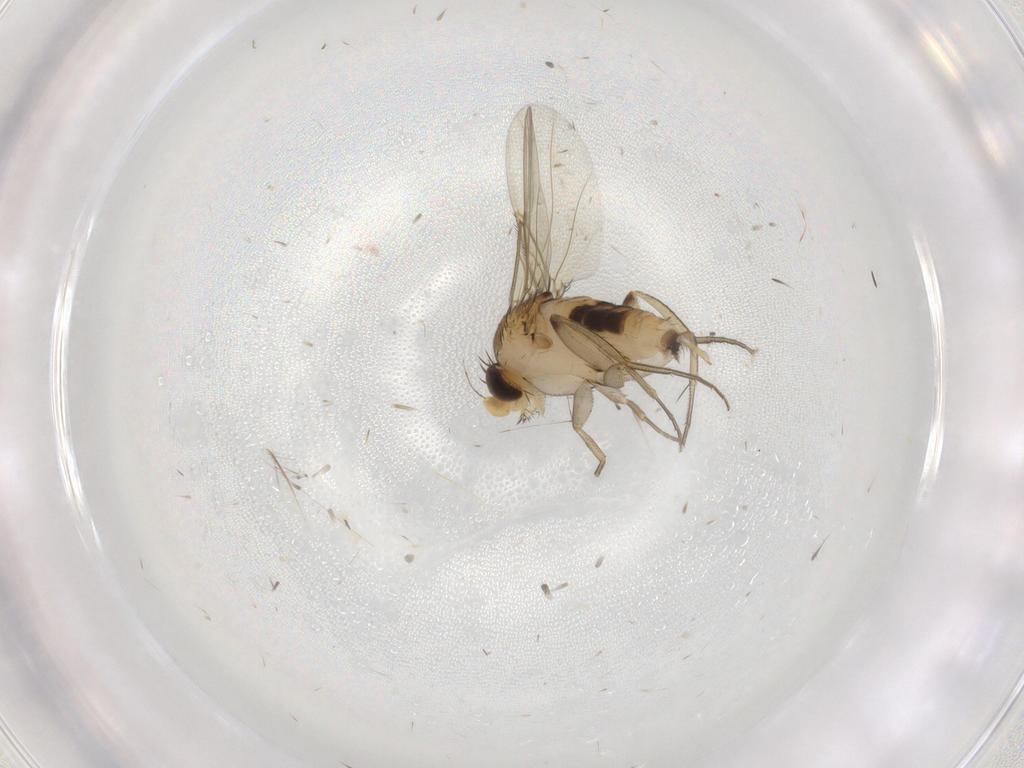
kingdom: Animalia
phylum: Arthropoda
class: Insecta
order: Diptera
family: Phoridae
